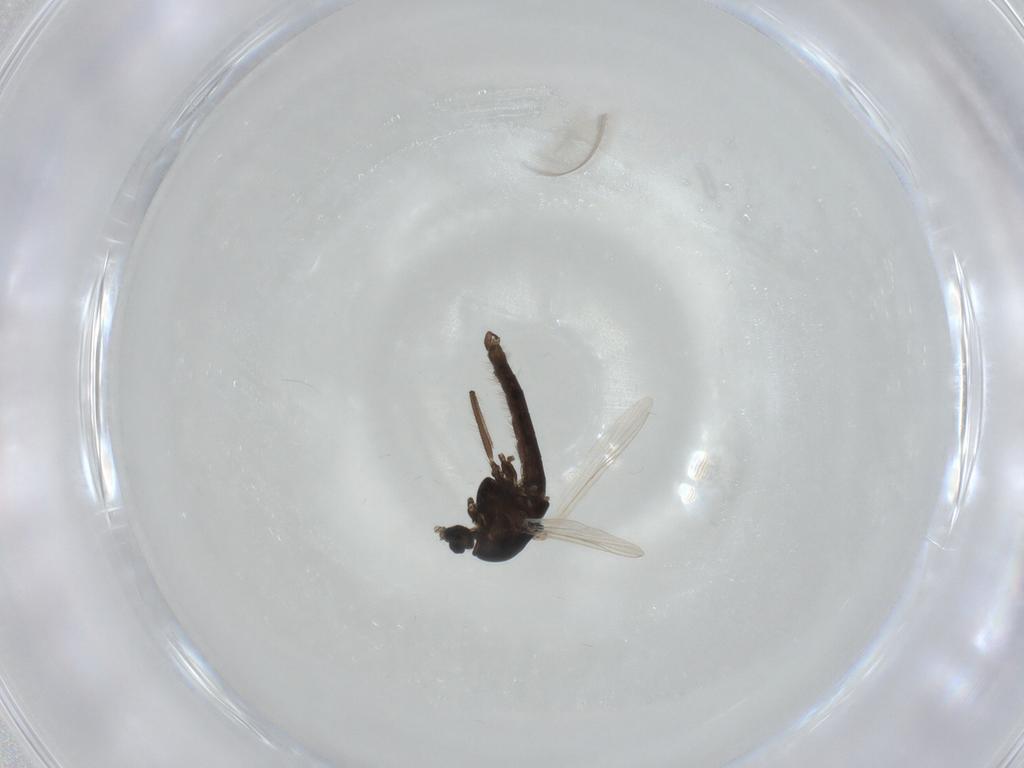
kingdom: Animalia
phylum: Arthropoda
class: Insecta
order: Diptera
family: Chironomidae
